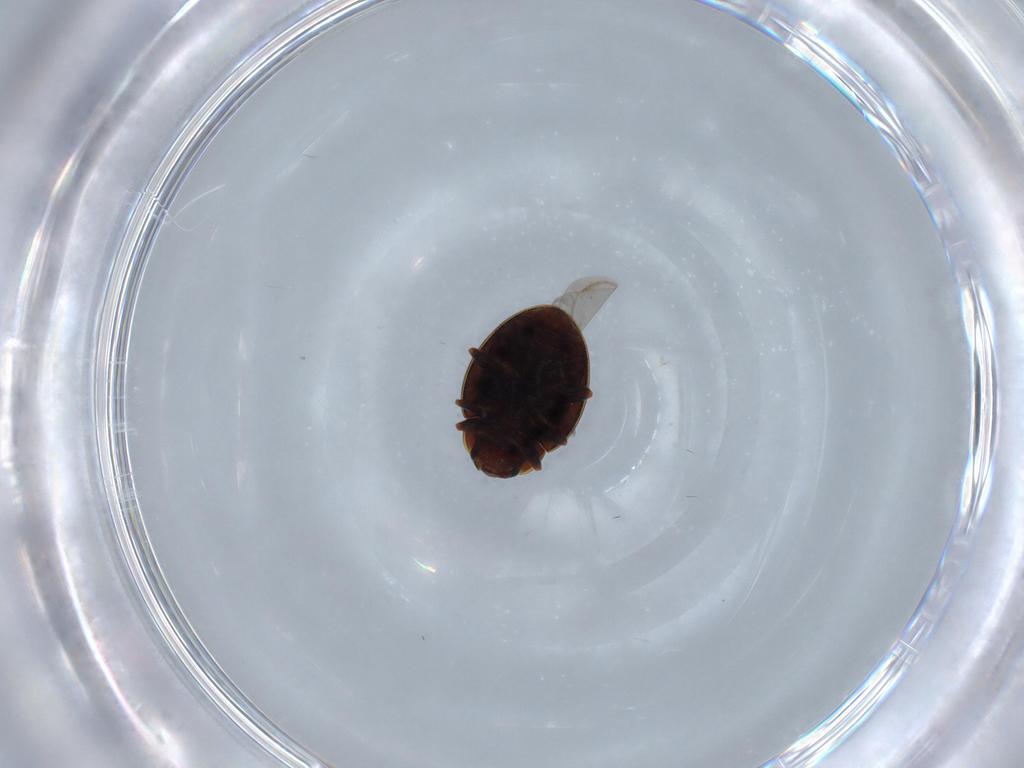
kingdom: Animalia
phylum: Arthropoda
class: Insecta
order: Coleoptera
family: Coccinellidae
